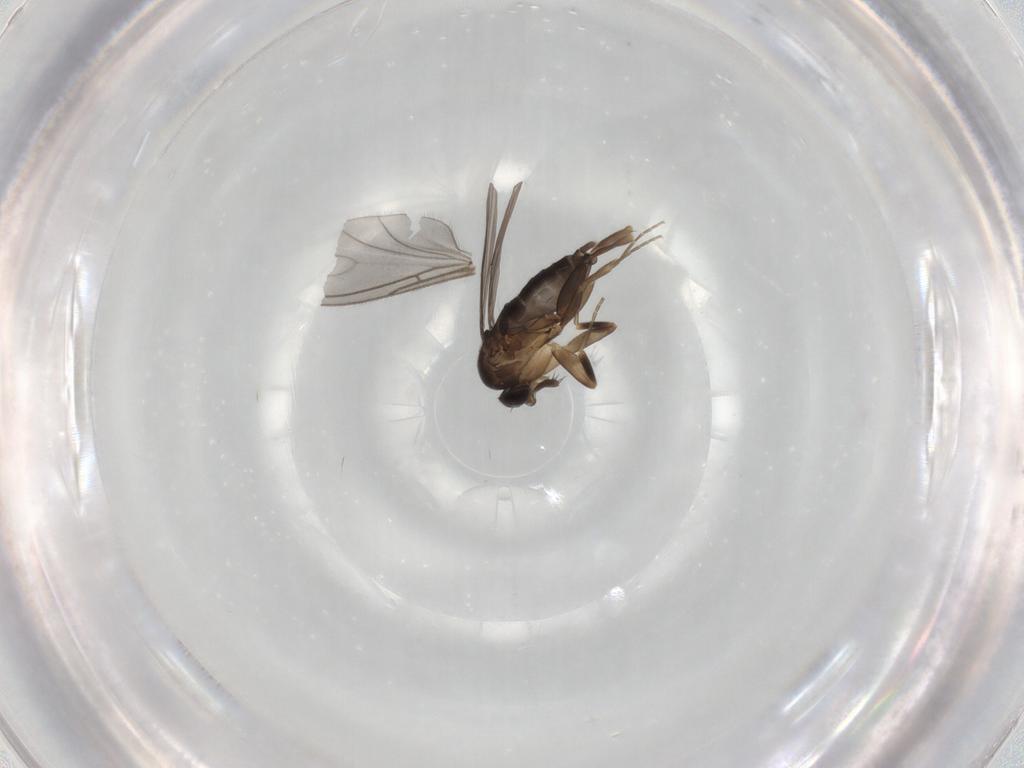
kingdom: Animalia
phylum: Arthropoda
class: Insecta
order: Diptera
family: Phoridae
